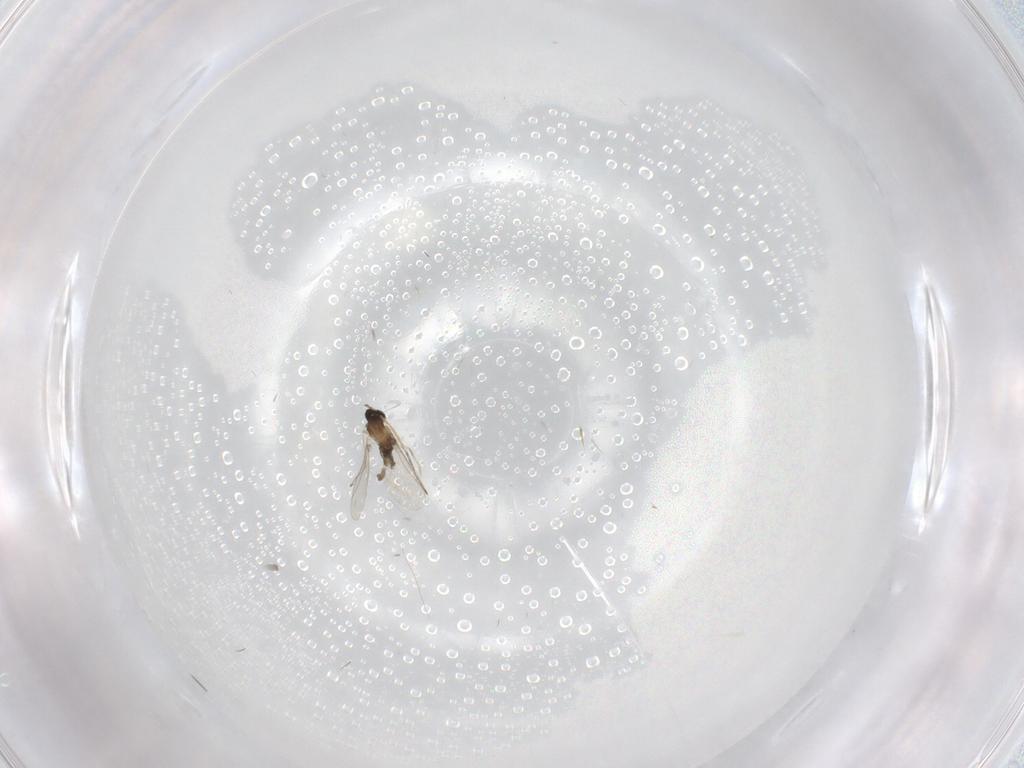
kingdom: Animalia
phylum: Arthropoda
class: Insecta
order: Diptera
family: Cecidomyiidae
